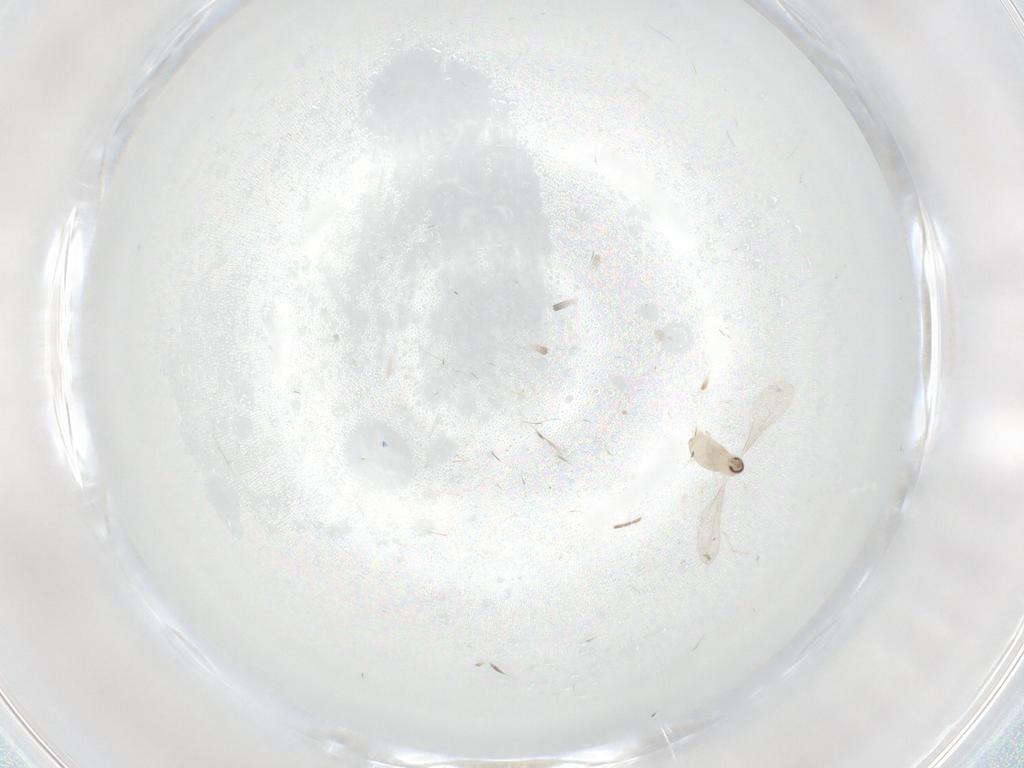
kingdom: Animalia
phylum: Arthropoda
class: Insecta
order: Diptera
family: Cecidomyiidae
